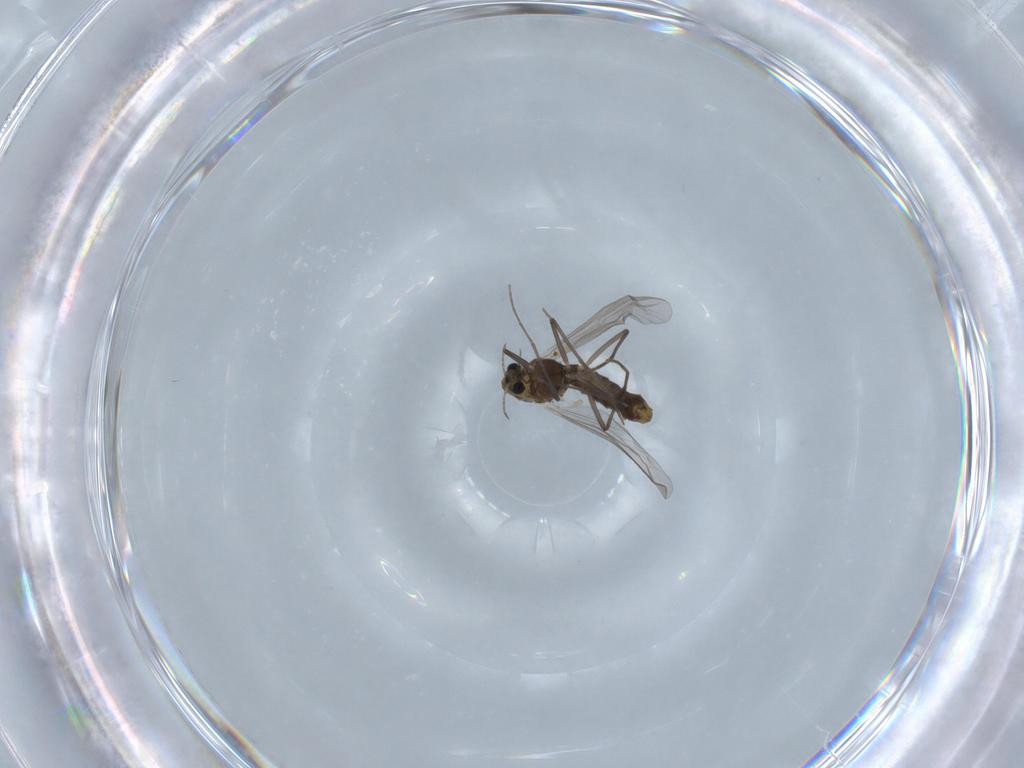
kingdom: Animalia
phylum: Arthropoda
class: Insecta
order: Diptera
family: Chironomidae
